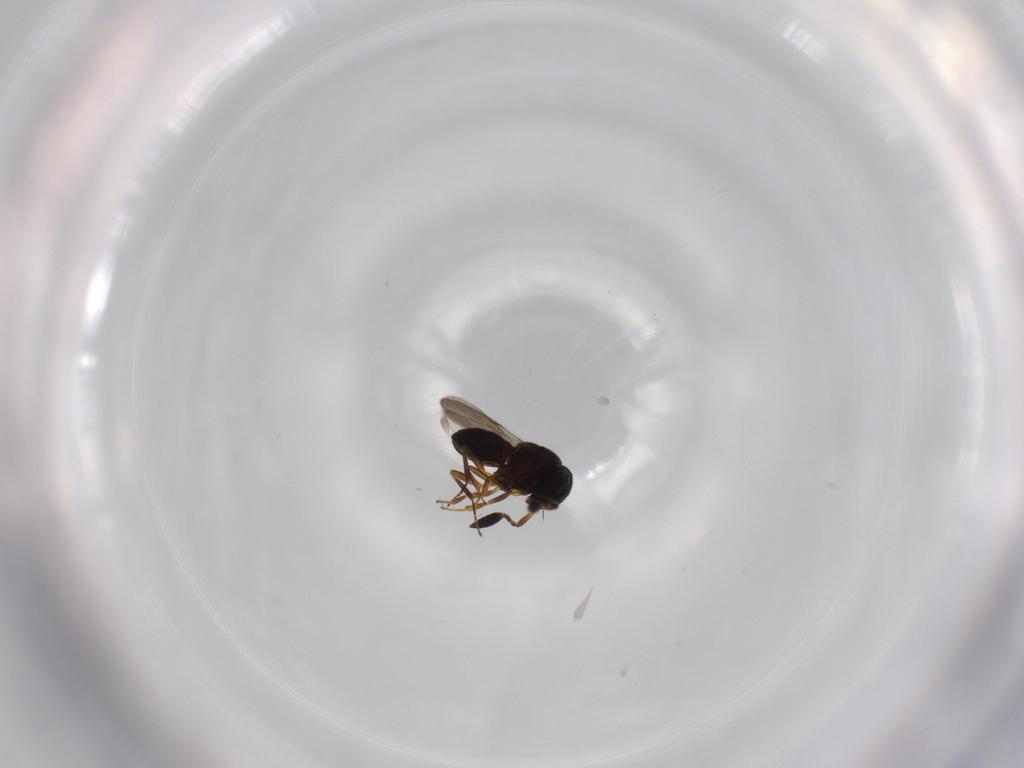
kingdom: Animalia
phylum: Arthropoda
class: Insecta
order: Hymenoptera
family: Scelionidae
